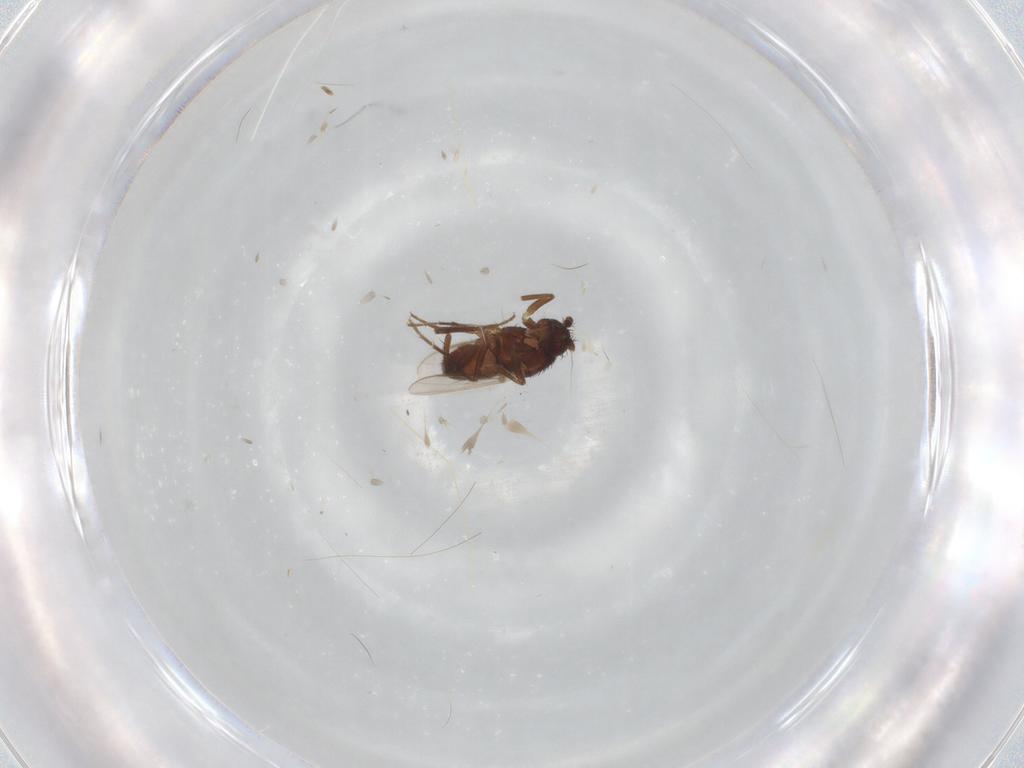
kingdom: Animalia
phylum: Arthropoda
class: Insecta
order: Diptera
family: Sphaeroceridae
